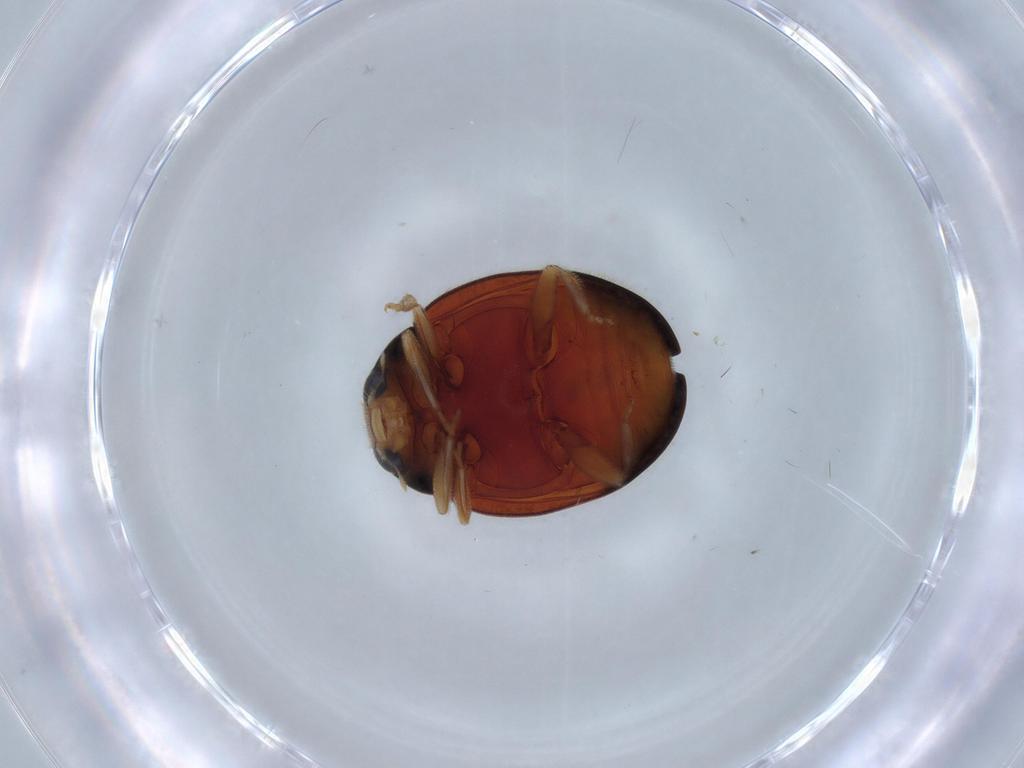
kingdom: Animalia
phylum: Arthropoda
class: Insecta
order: Coleoptera
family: Coccinellidae
